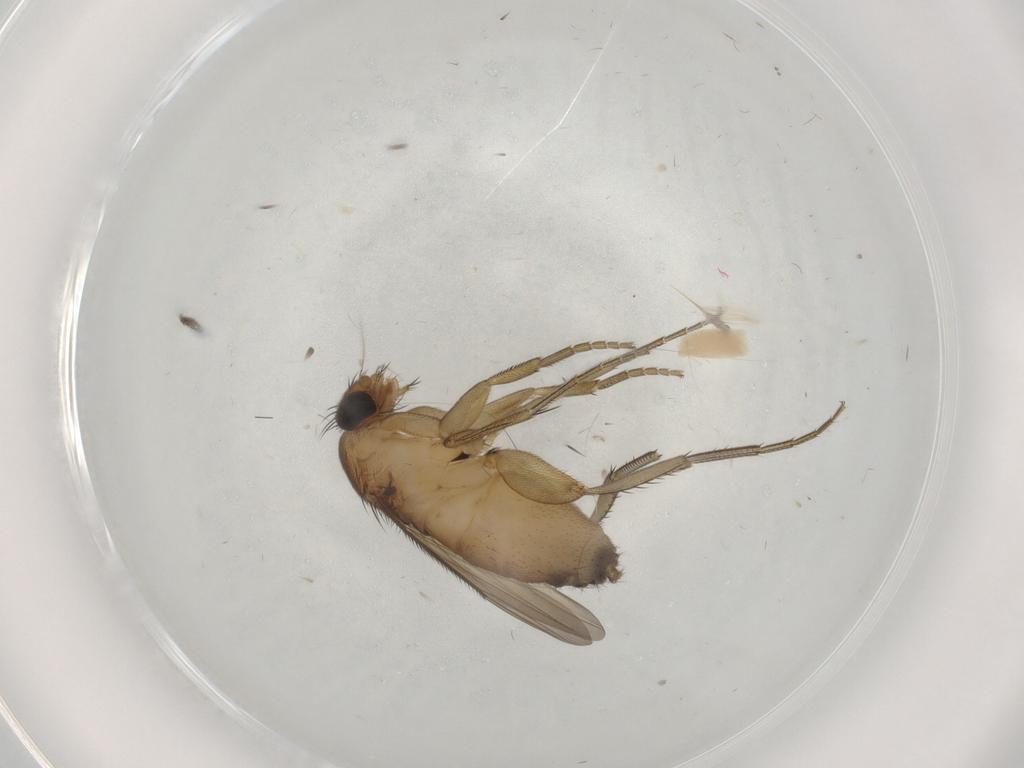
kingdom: Animalia
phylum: Arthropoda
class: Insecta
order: Diptera
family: Phoridae
